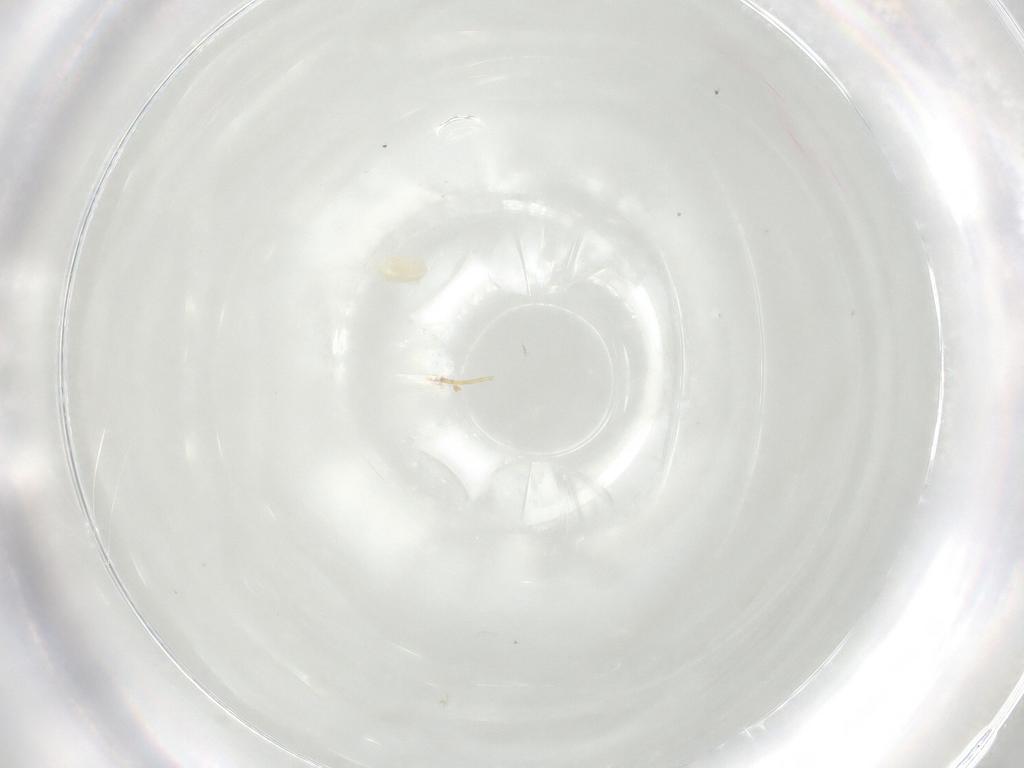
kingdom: Animalia
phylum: Arthropoda
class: Arachnida
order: Trombidiformes
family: Eupodidae
